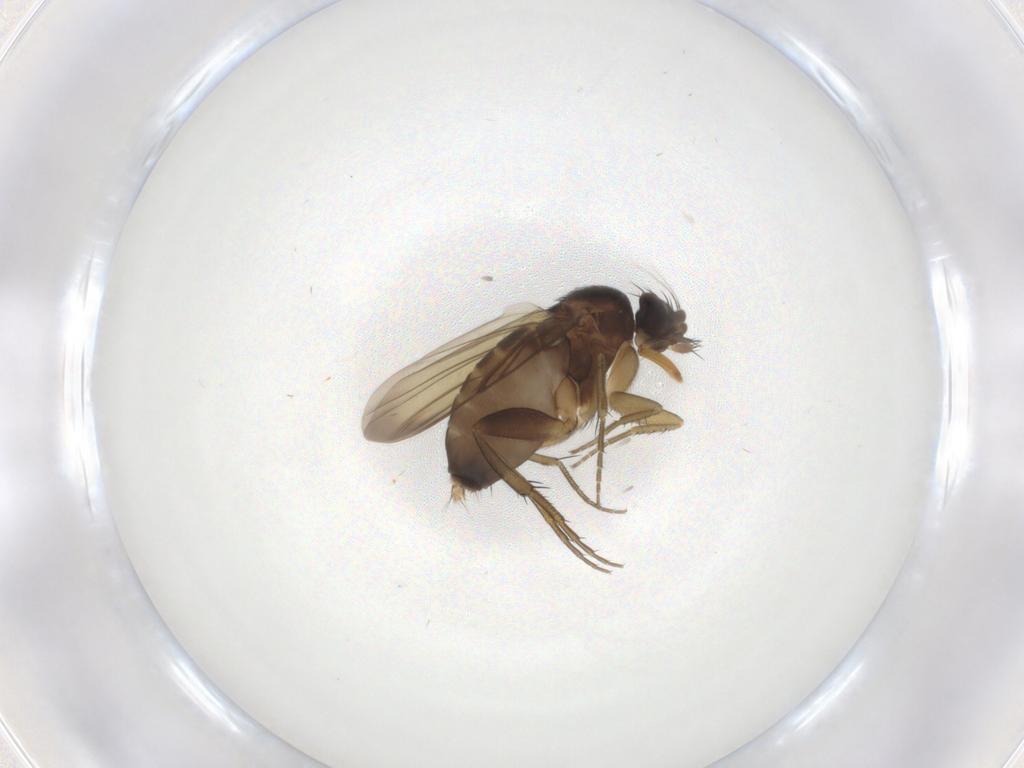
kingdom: Animalia
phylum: Arthropoda
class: Insecta
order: Diptera
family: Phoridae
